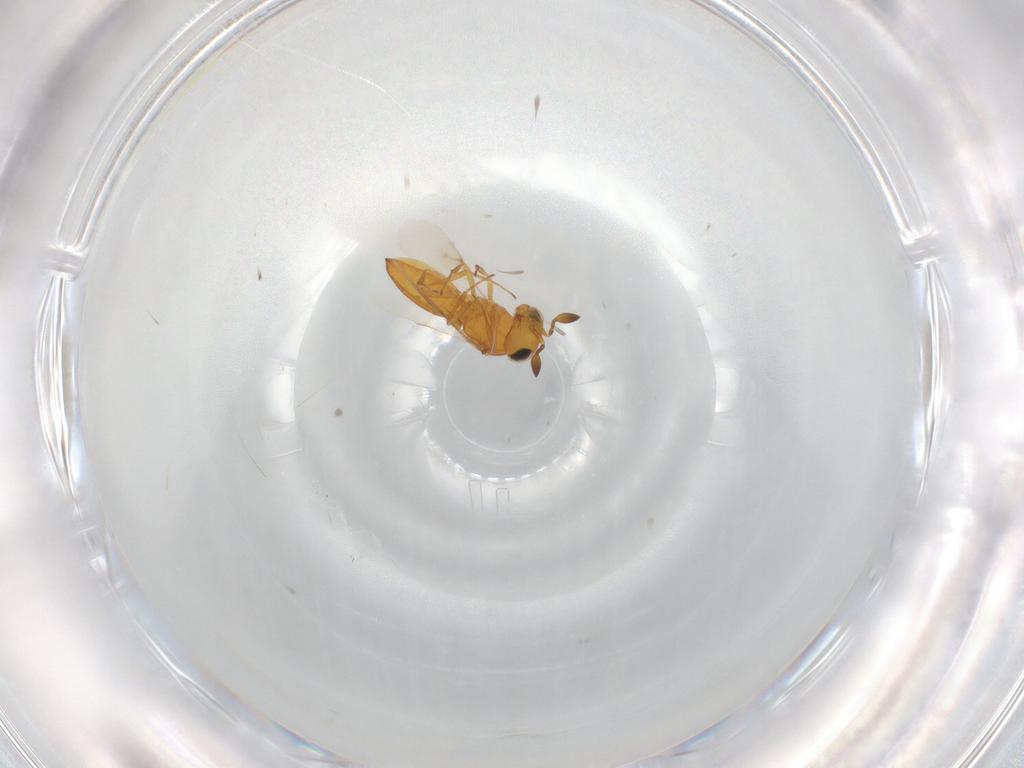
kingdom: Animalia
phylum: Arthropoda
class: Insecta
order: Hymenoptera
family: Scelionidae
